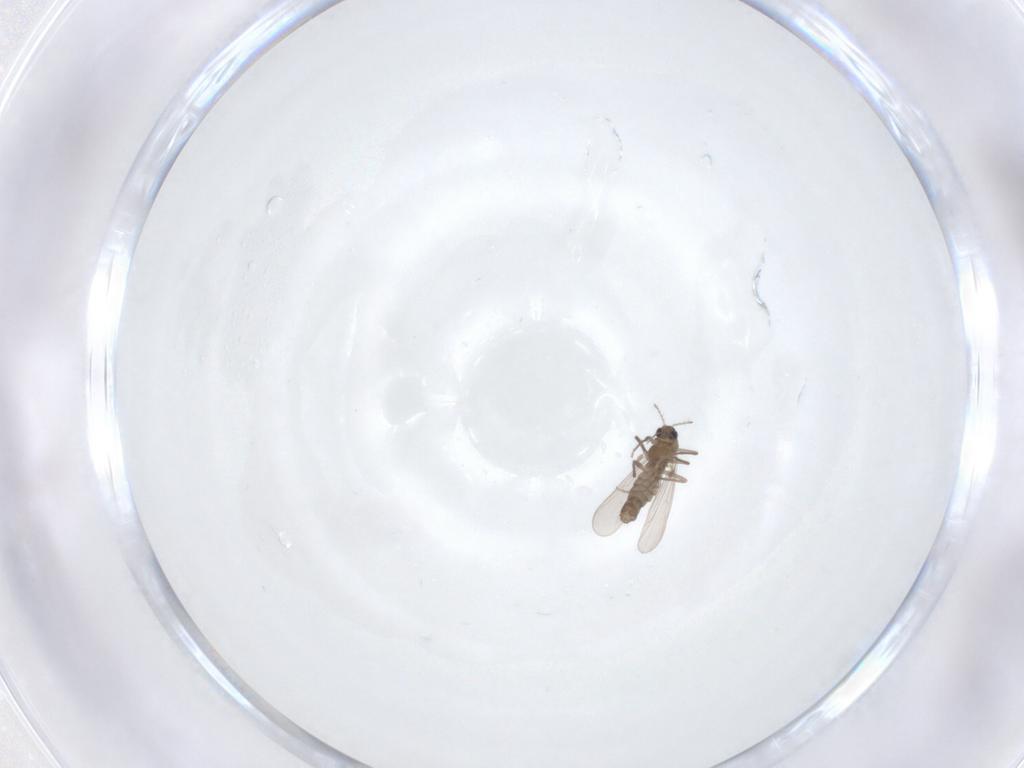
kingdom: Animalia
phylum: Arthropoda
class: Insecta
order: Diptera
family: Chironomidae
